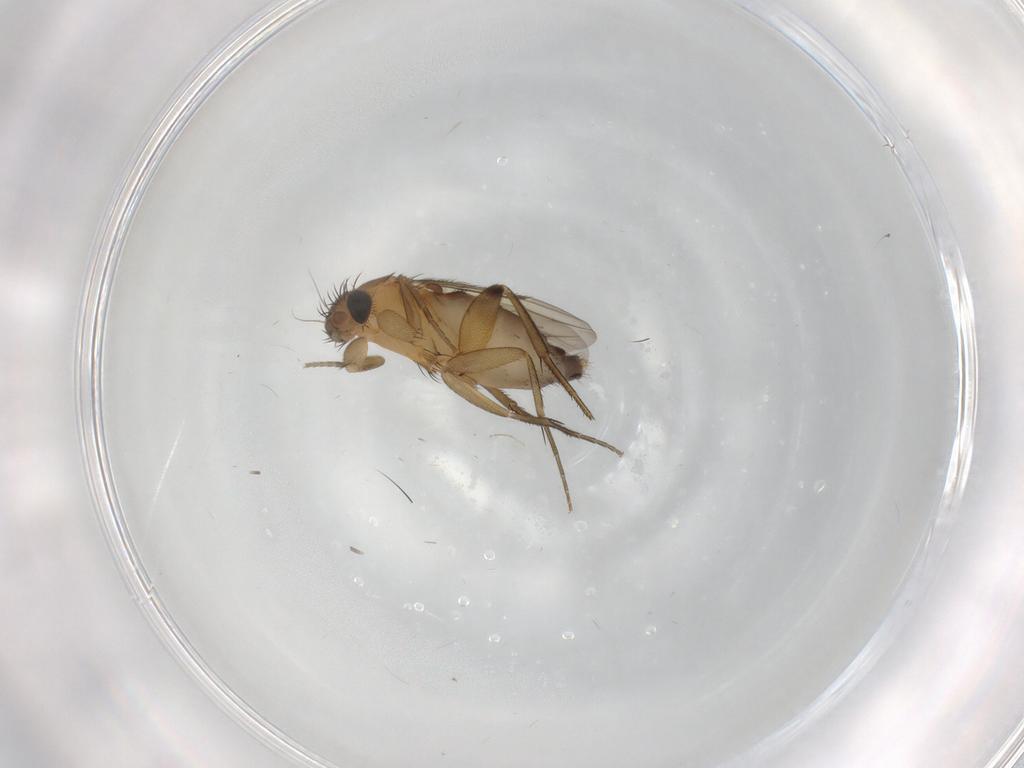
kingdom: Animalia
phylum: Arthropoda
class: Insecta
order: Diptera
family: Phoridae
